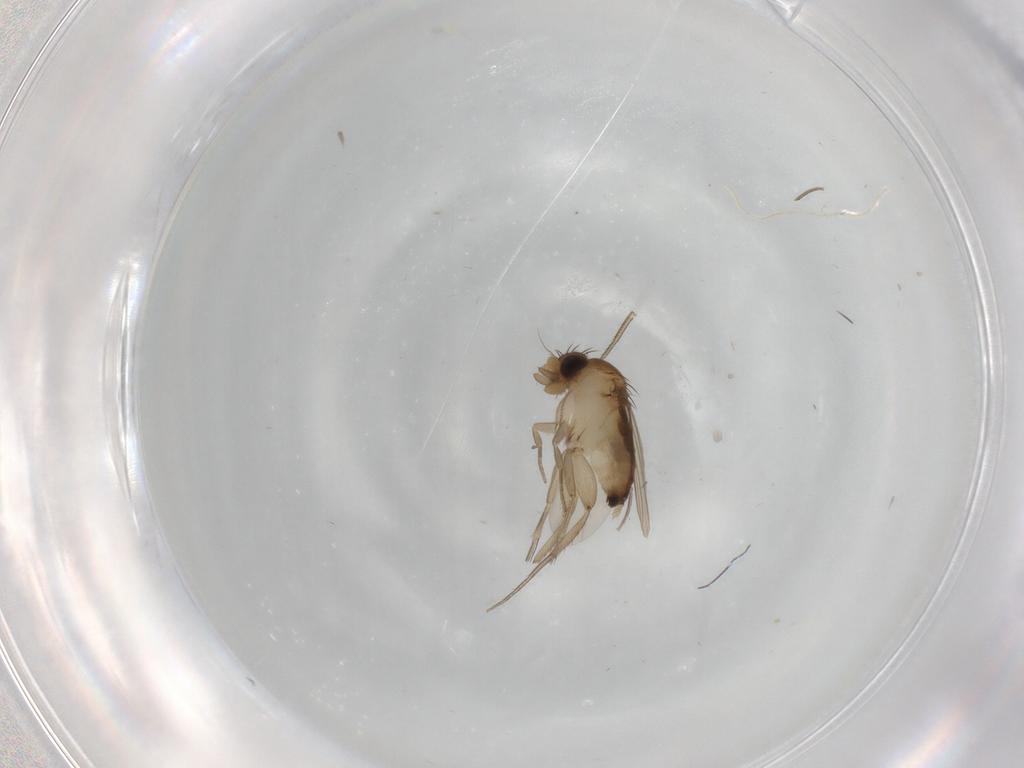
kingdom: Animalia
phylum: Arthropoda
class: Insecta
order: Diptera
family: Phoridae
